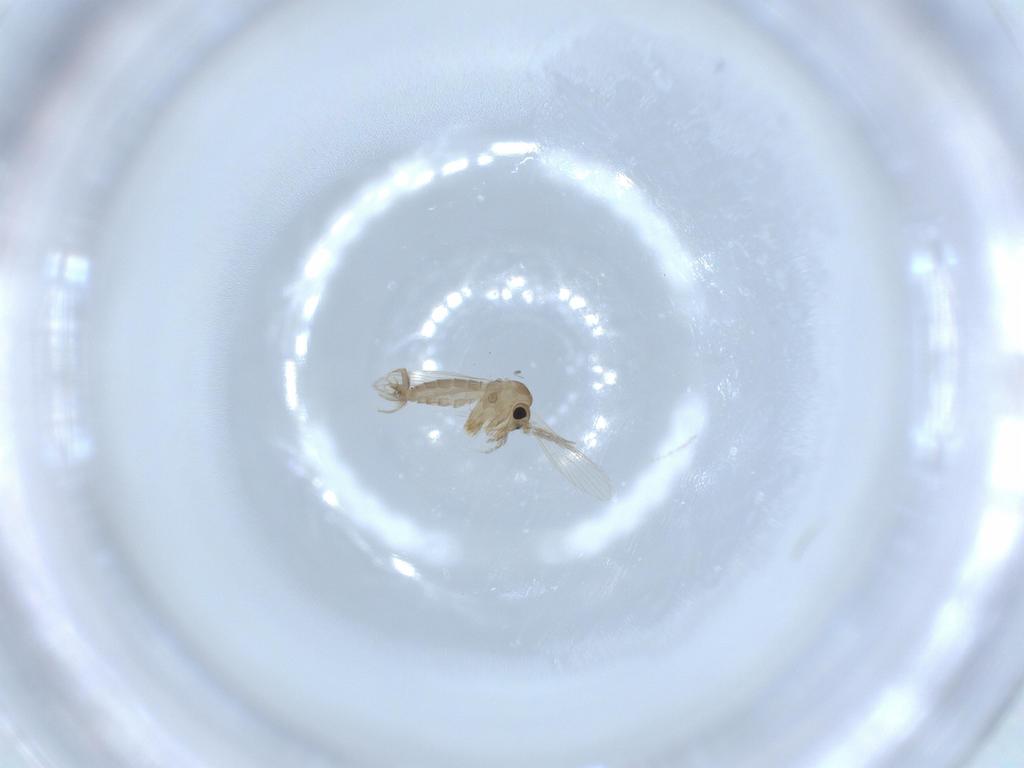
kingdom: Animalia
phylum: Arthropoda
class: Insecta
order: Diptera
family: Psychodidae
